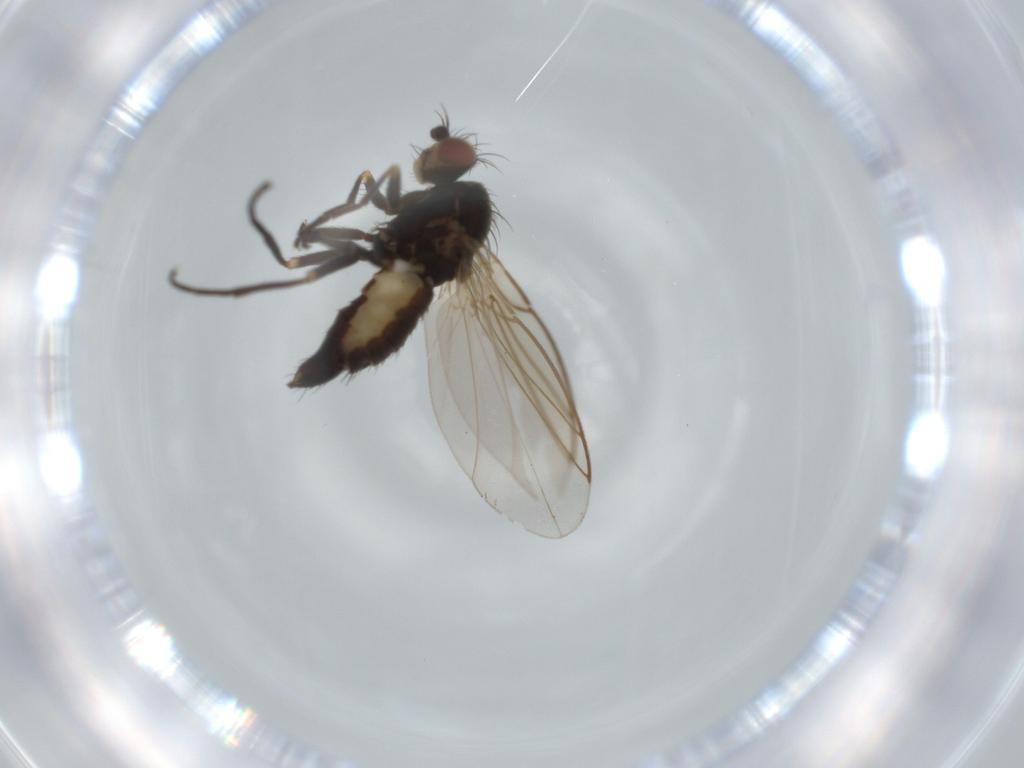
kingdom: Animalia
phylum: Arthropoda
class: Insecta
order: Diptera
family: Agromyzidae
